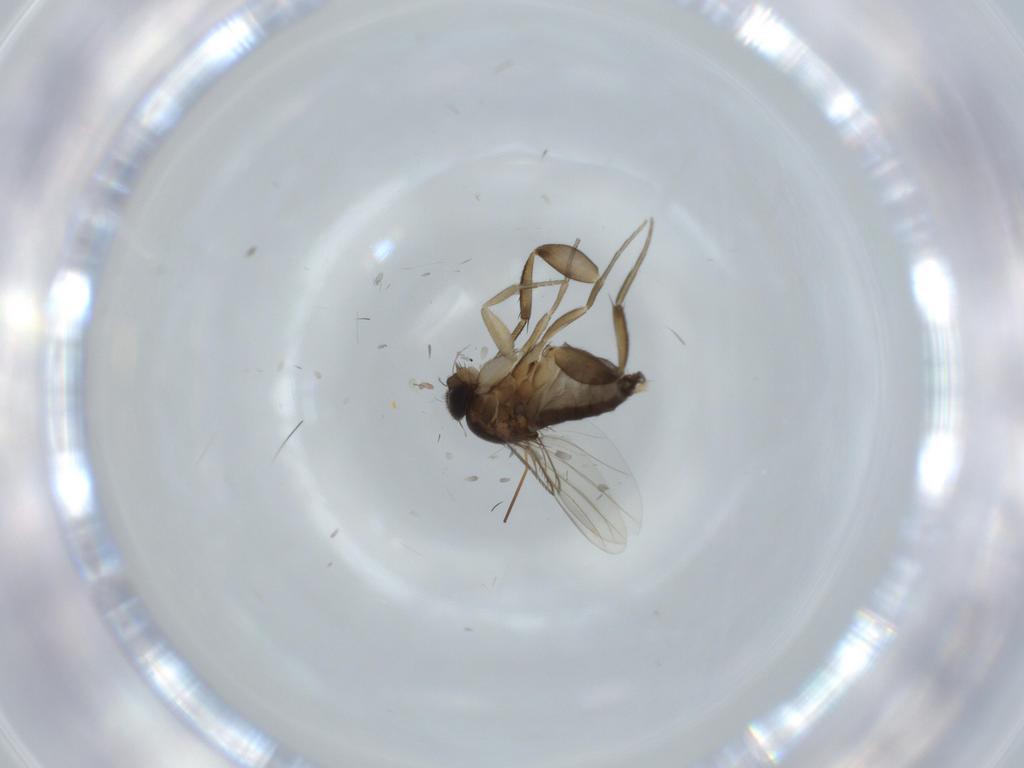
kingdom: Animalia
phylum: Arthropoda
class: Insecta
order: Diptera
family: Phoridae
